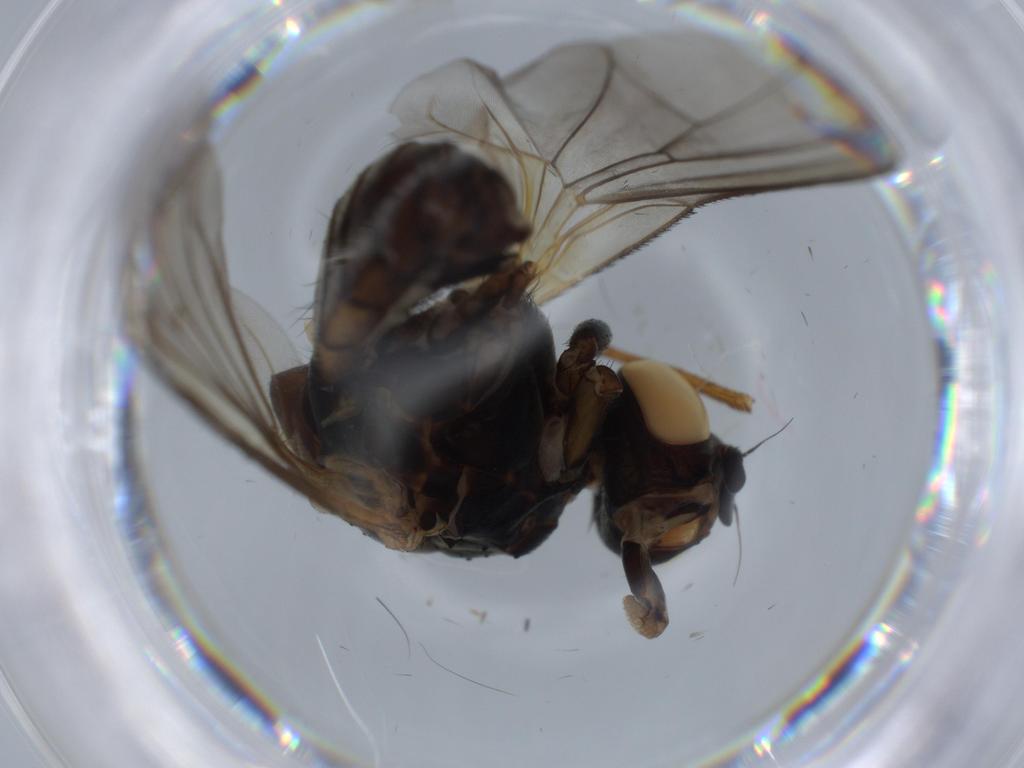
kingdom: Animalia
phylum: Arthropoda
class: Insecta
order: Diptera
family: Anthomyiidae
